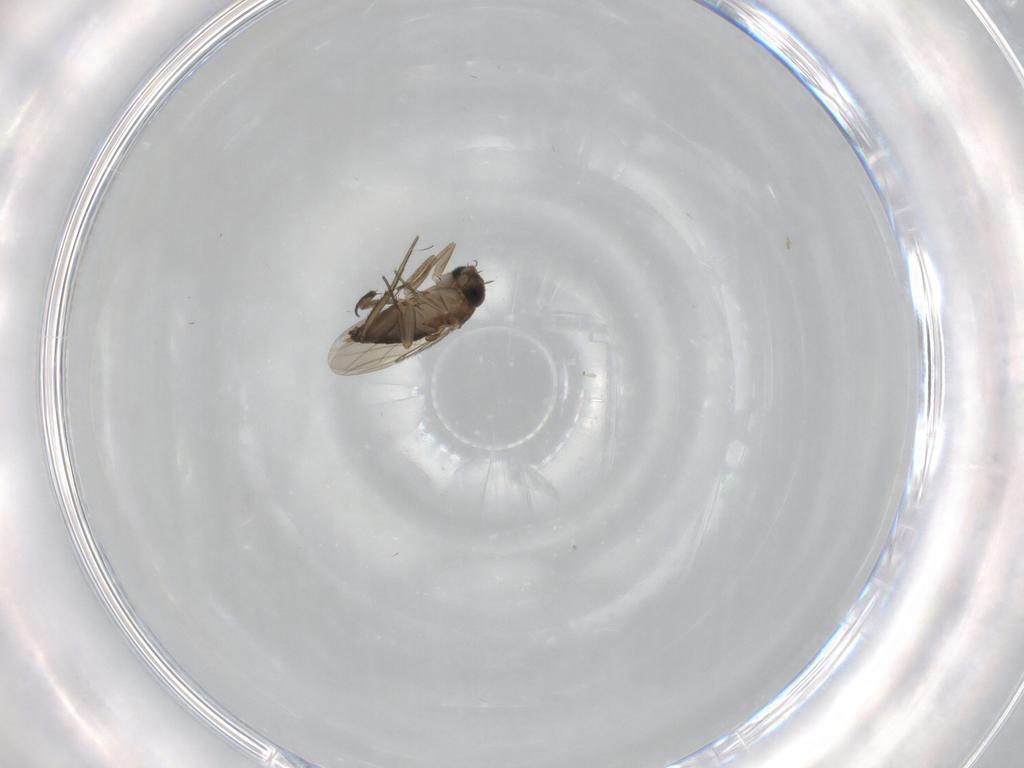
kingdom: Animalia
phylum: Arthropoda
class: Insecta
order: Diptera
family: Phoridae
